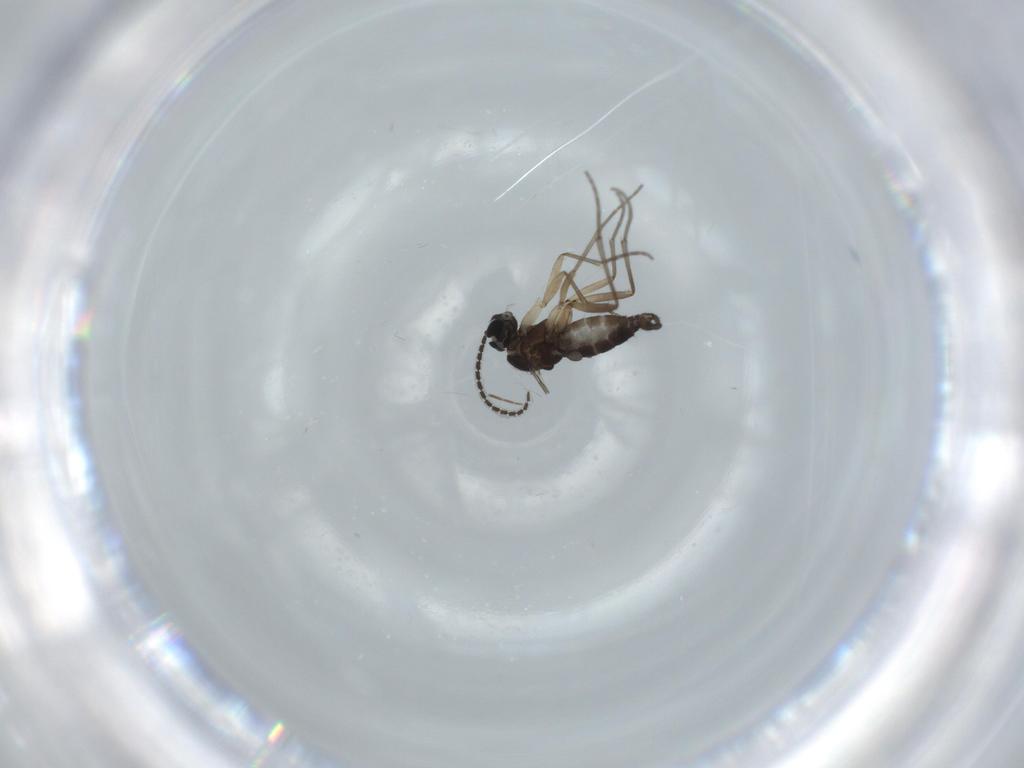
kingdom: Animalia
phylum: Arthropoda
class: Insecta
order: Diptera
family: Sciaridae
